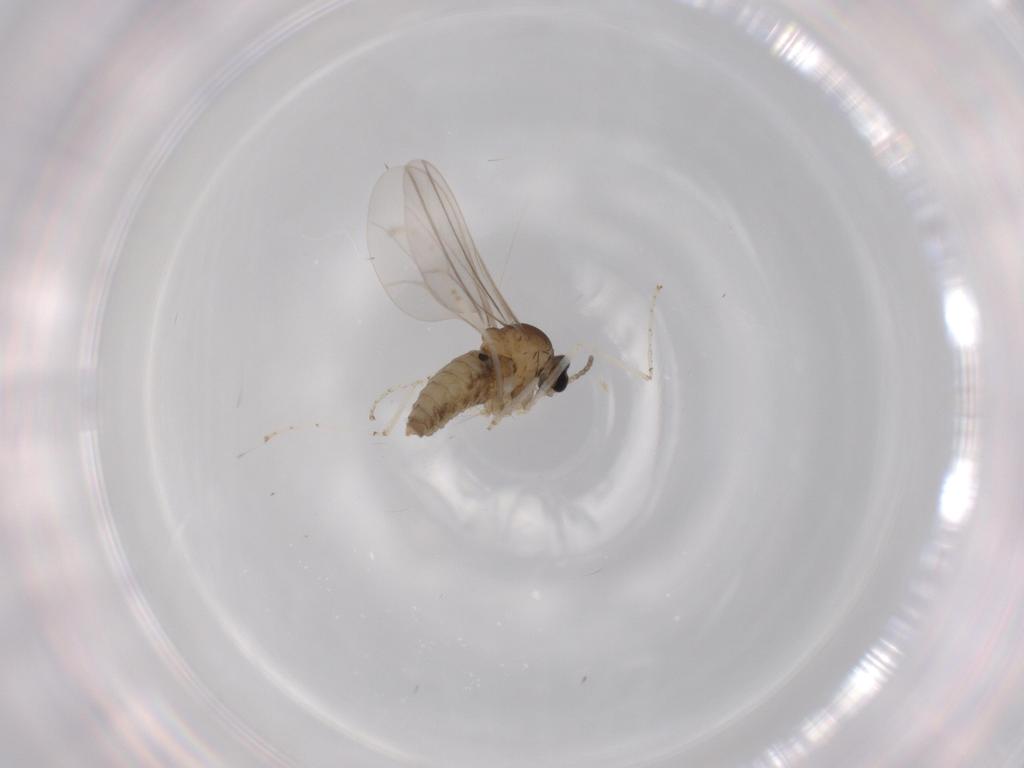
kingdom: Animalia
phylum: Arthropoda
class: Insecta
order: Diptera
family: Cecidomyiidae
